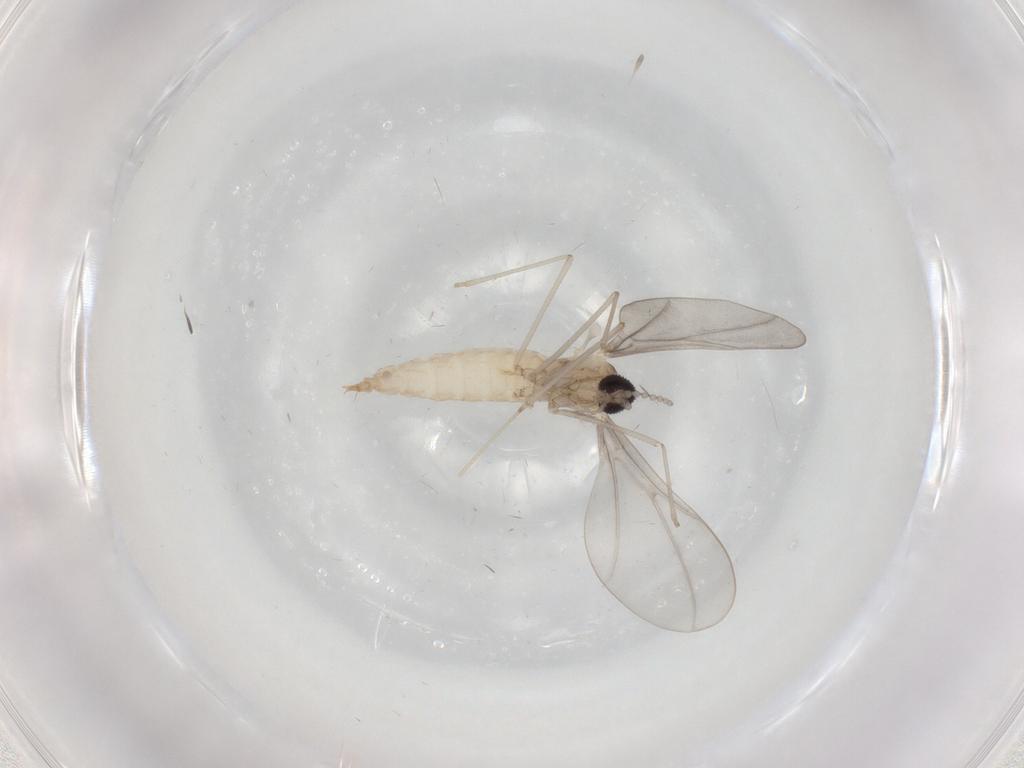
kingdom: Animalia
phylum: Arthropoda
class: Insecta
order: Diptera
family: Cecidomyiidae
